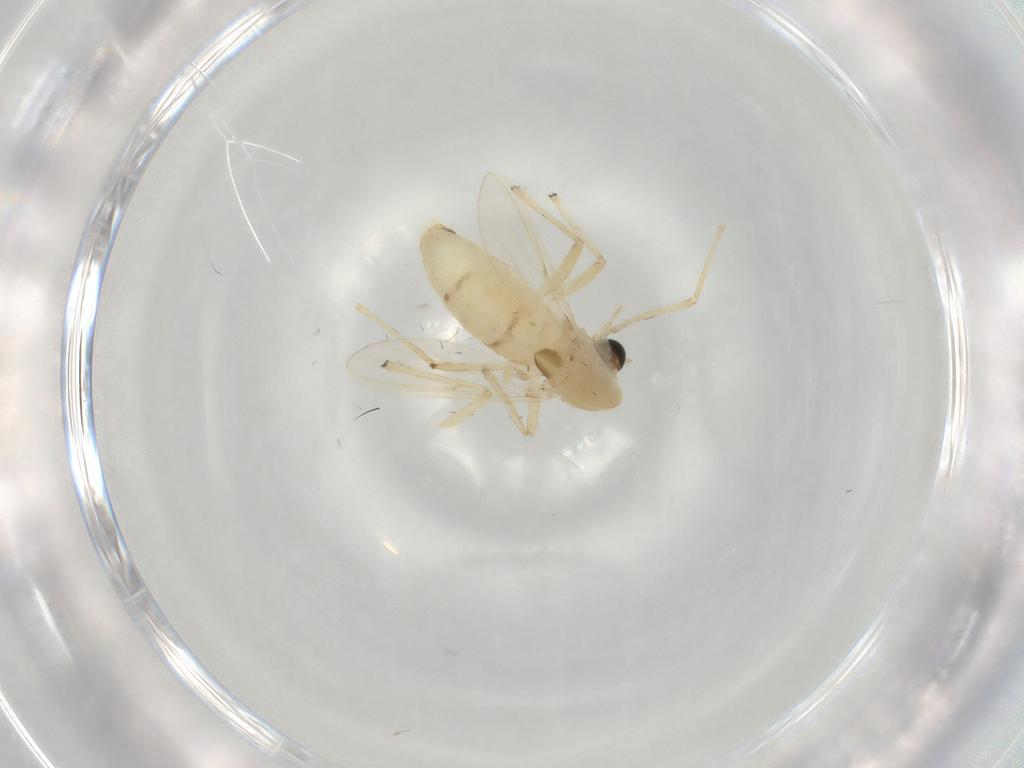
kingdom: Animalia
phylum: Arthropoda
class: Insecta
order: Diptera
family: Chironomidae
